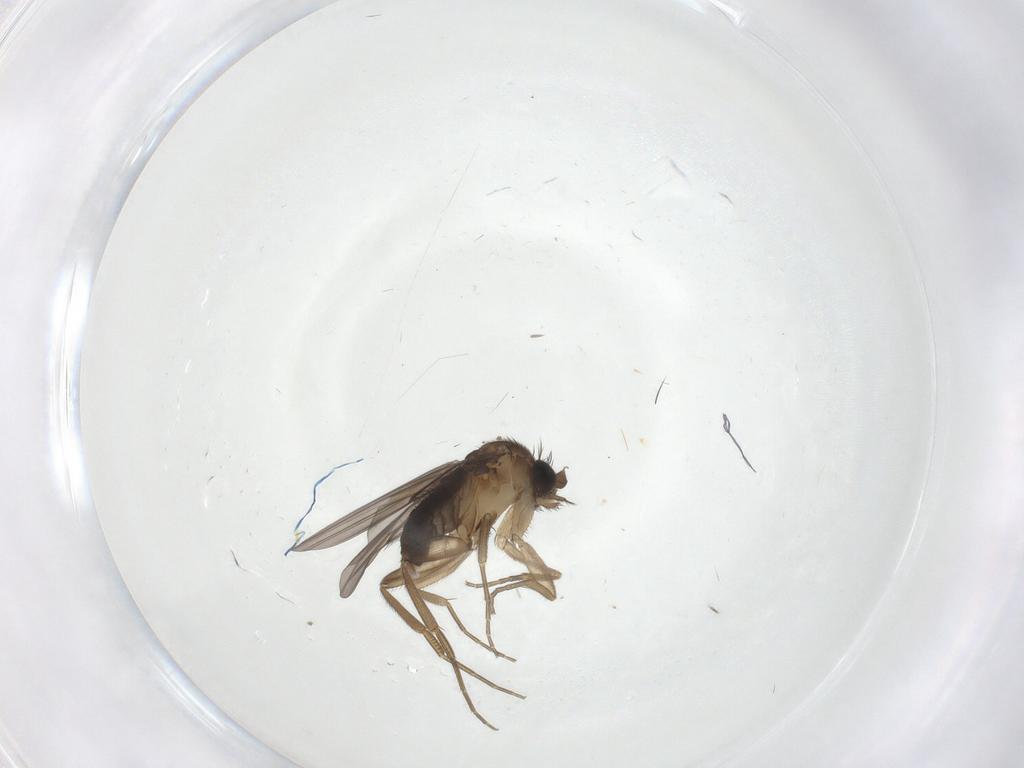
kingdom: Animalia
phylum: Arthropoda
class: Insecta
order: Diptera
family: Phoridae
